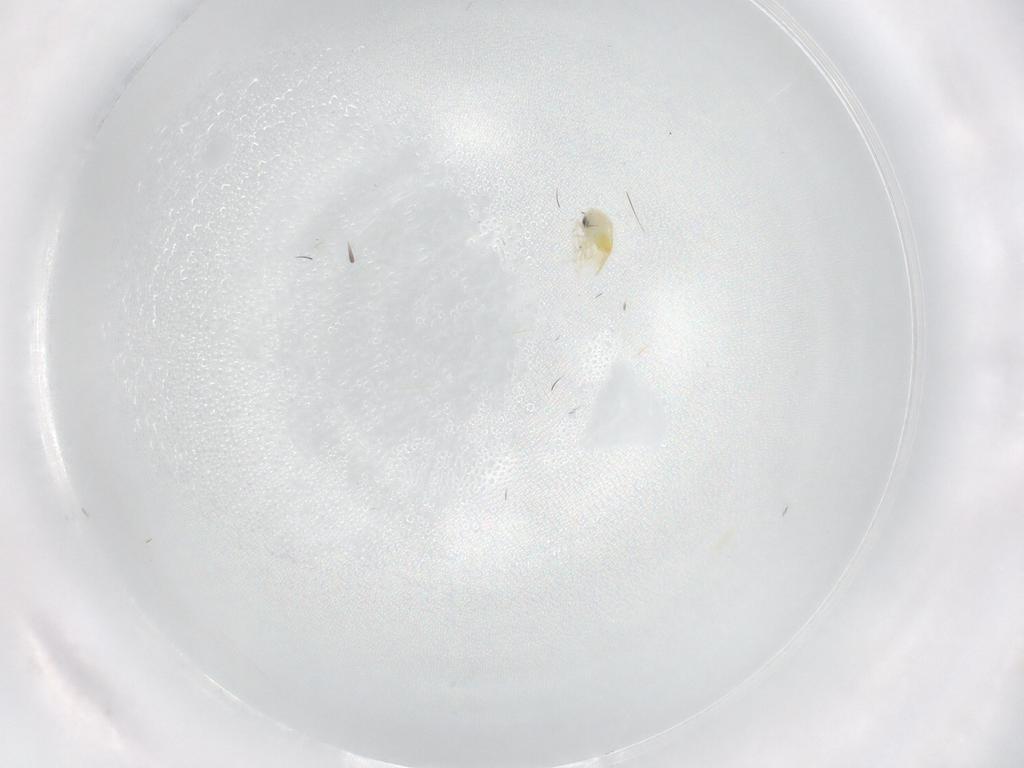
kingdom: Animalia
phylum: Arthropoda
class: Insecta
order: Hemiptera
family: Aleyrodidae
